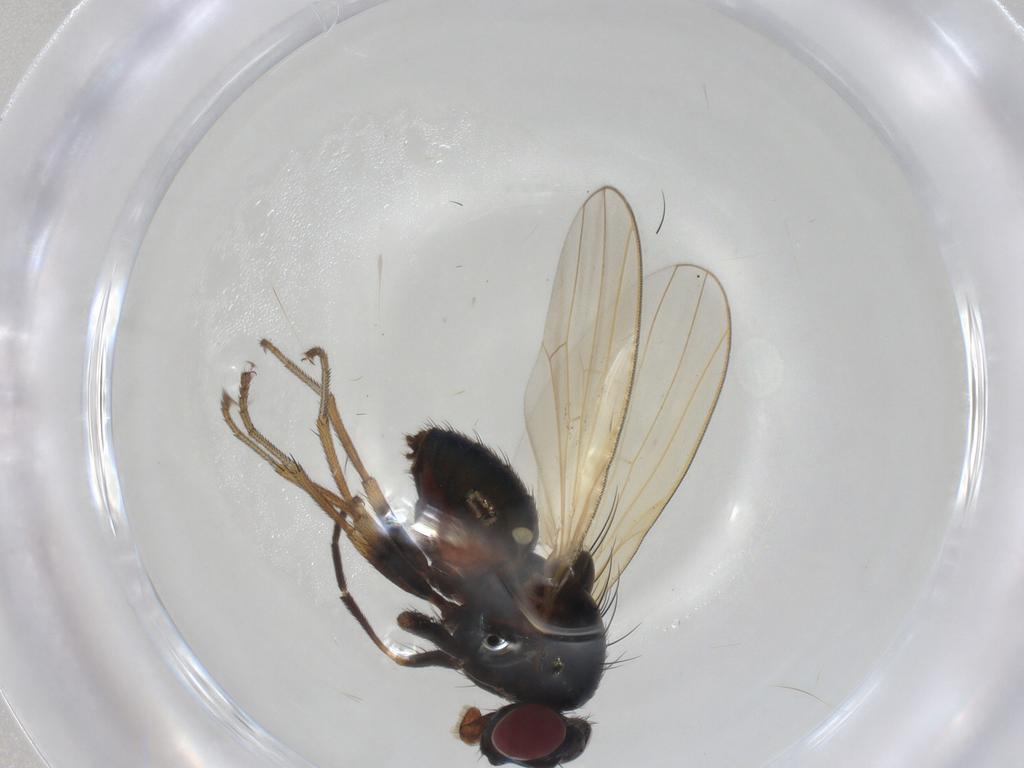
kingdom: Animalia
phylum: Arthropoda
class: Insecta
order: Diptera
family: Lauxaniidae
